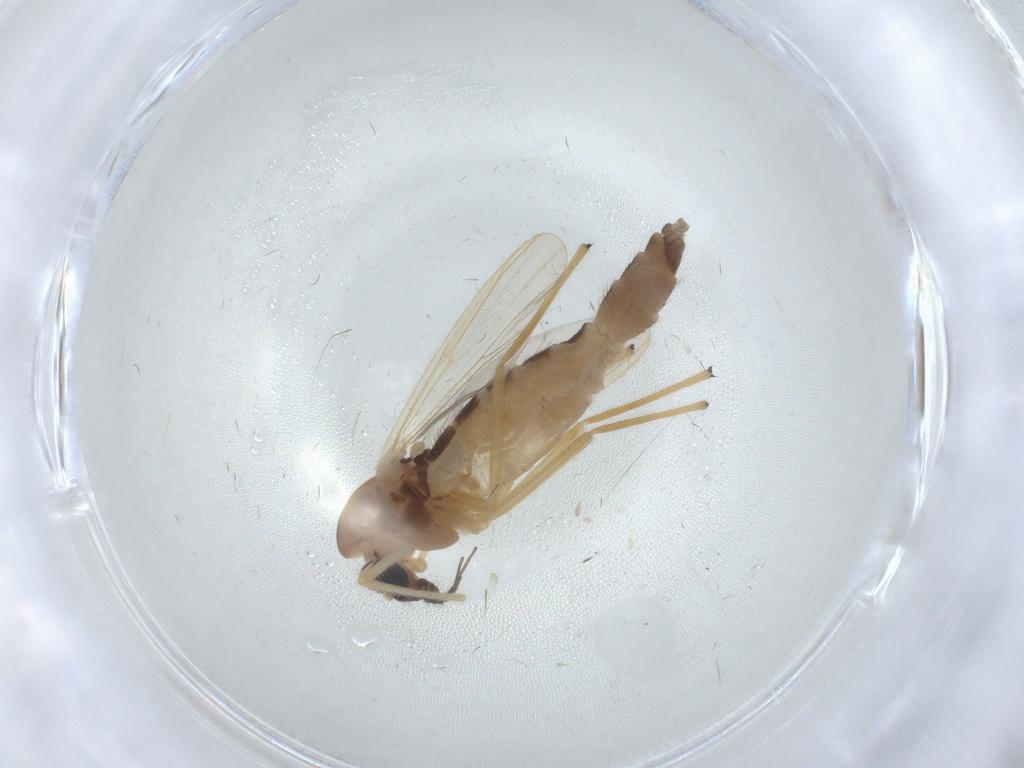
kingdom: Animalia
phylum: Arthropoda
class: Insecta
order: Diptera
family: Chironomidae
